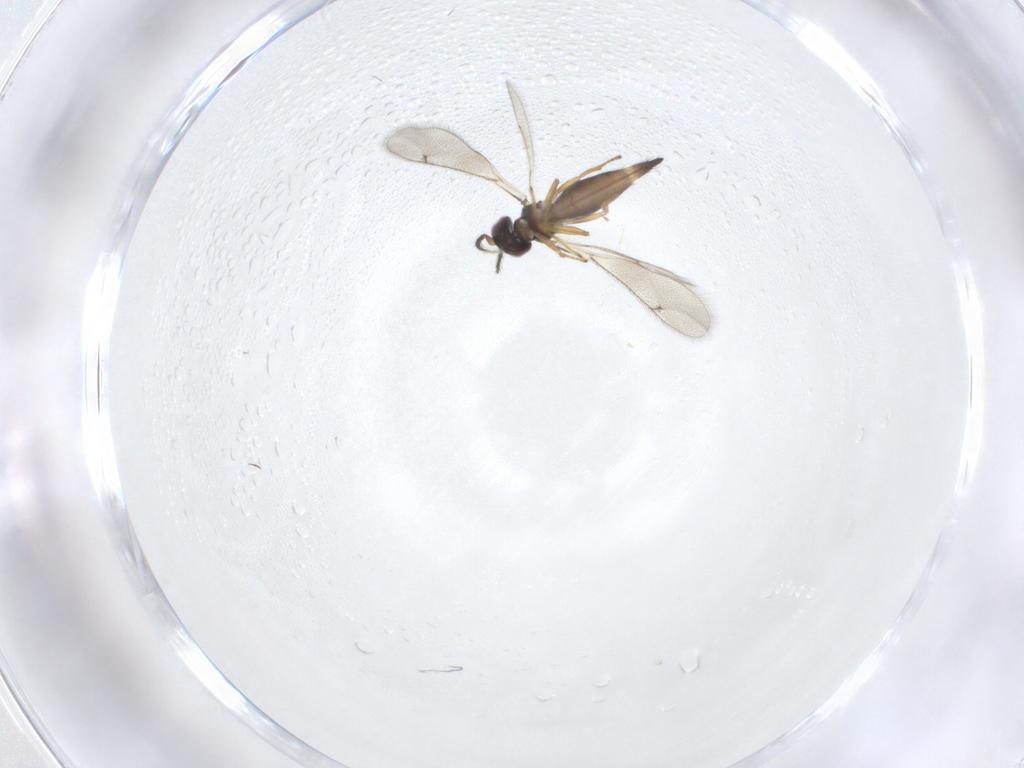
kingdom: Animalia
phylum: Arthropoda
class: Insecta
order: Hymenoptera
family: Eulophidae
